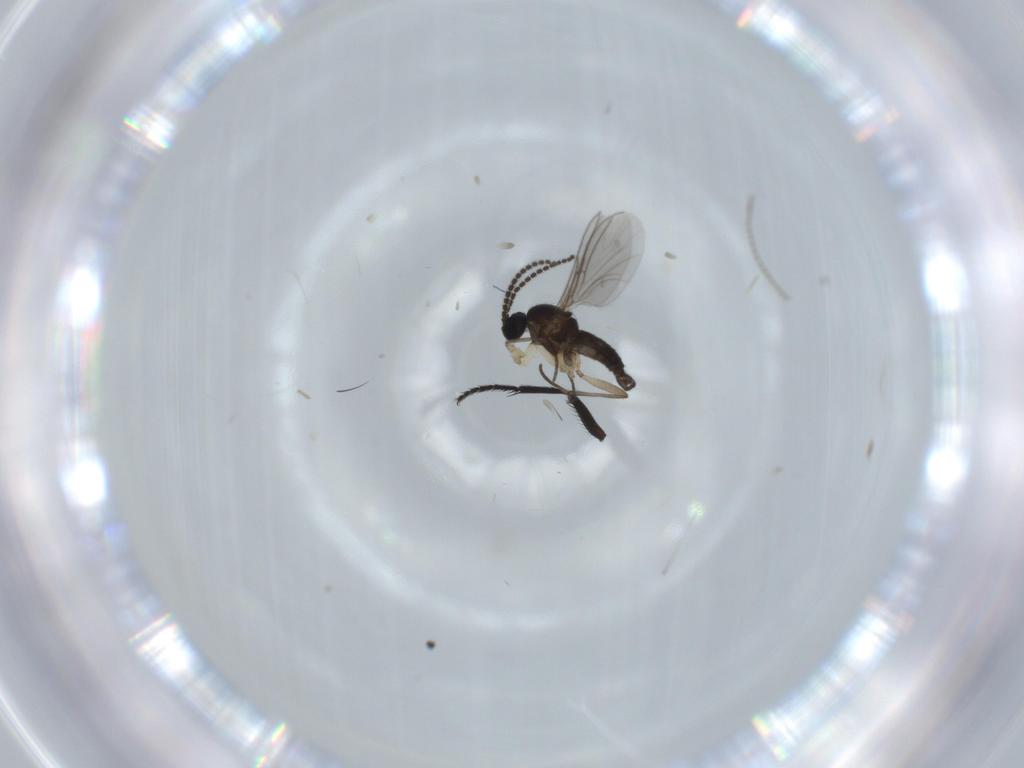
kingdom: Animalia
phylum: Arthropoda
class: Insecta
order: Diptera
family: Sciaridae
